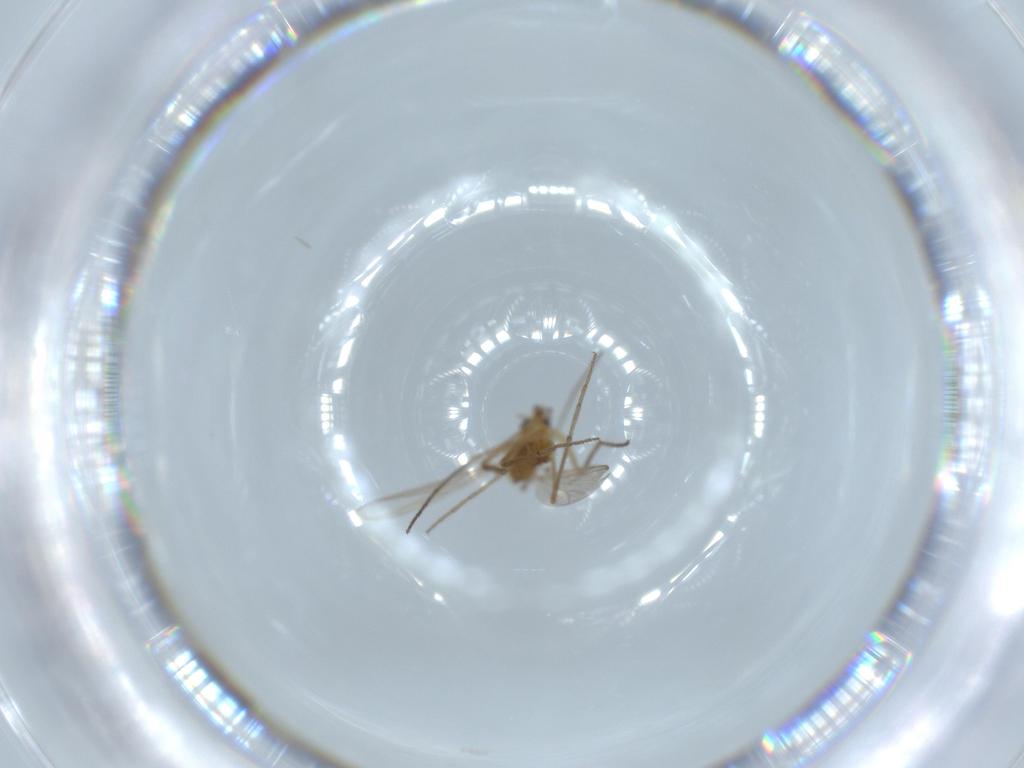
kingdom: Animalia
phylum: Arthropoda
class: Insecta
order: Diptera
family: Chironomidae
